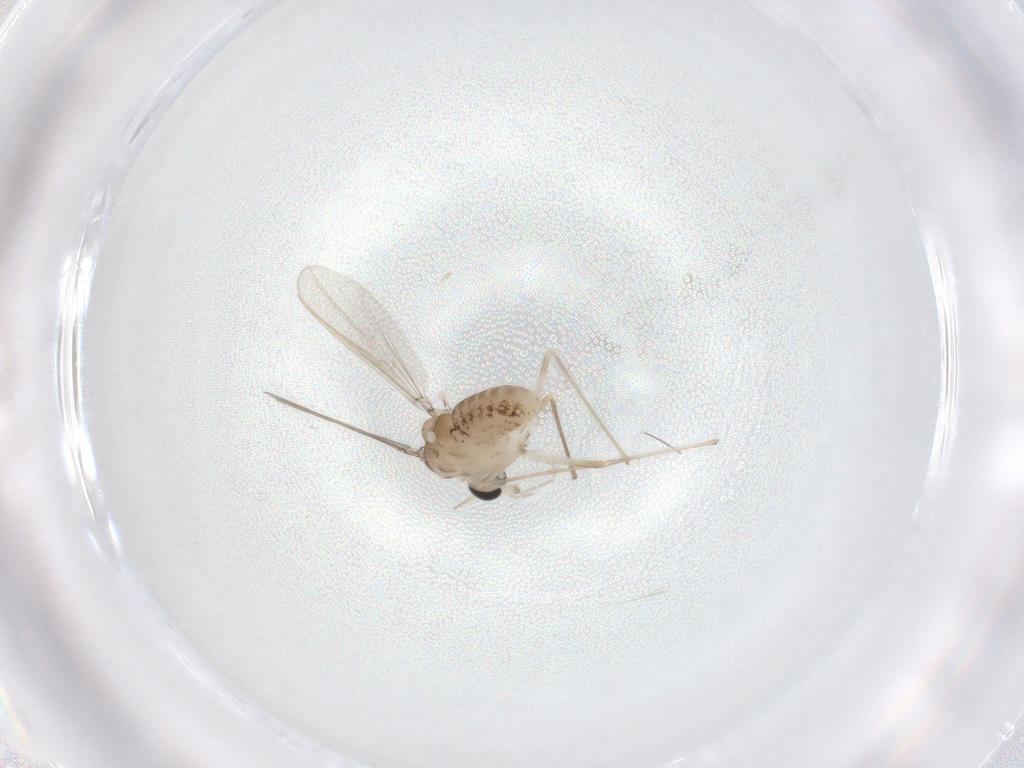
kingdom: Animalia
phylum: Arthropoda
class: Insecta
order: Diptera
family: Chironomidae
